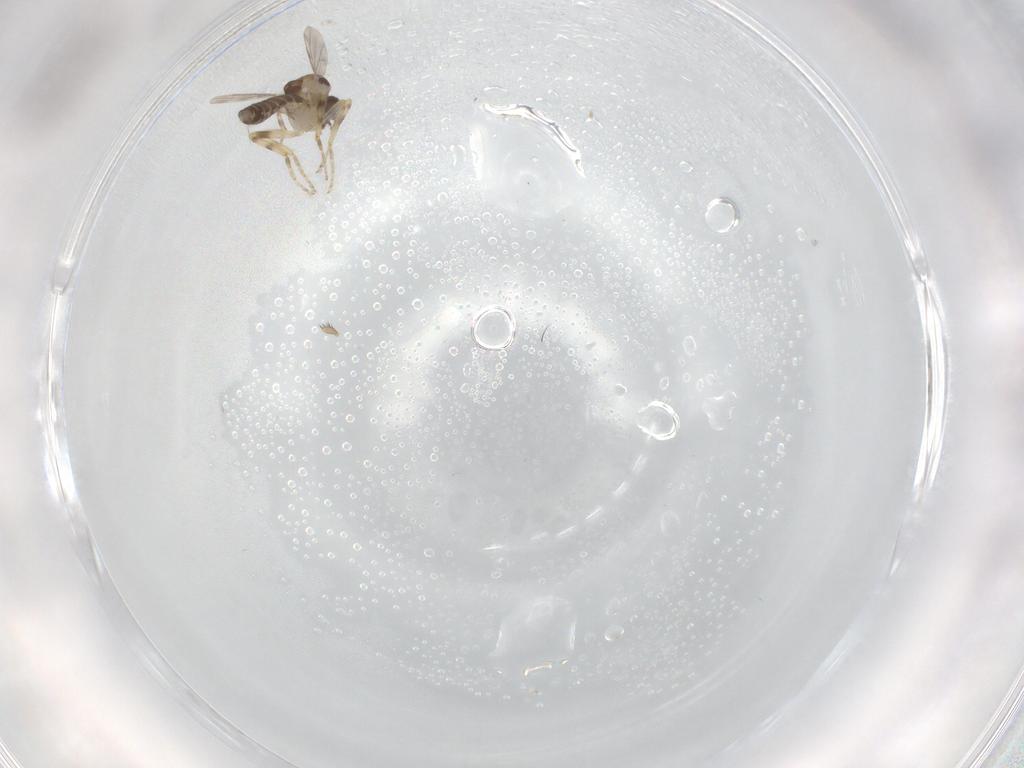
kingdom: Animalia
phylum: Arthropoda
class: Insecta
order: Diptera
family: Ceratopogonidae
